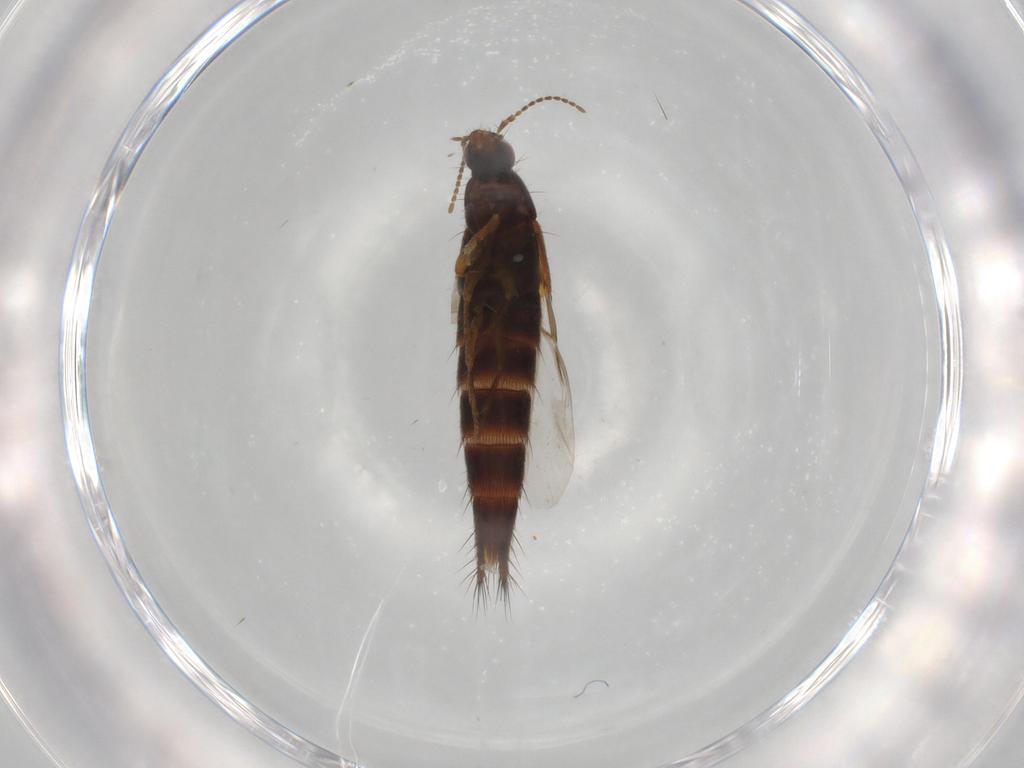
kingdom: Animalia
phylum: Arthropoda
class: Insecta
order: Coleoptera
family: Staphylinidae
